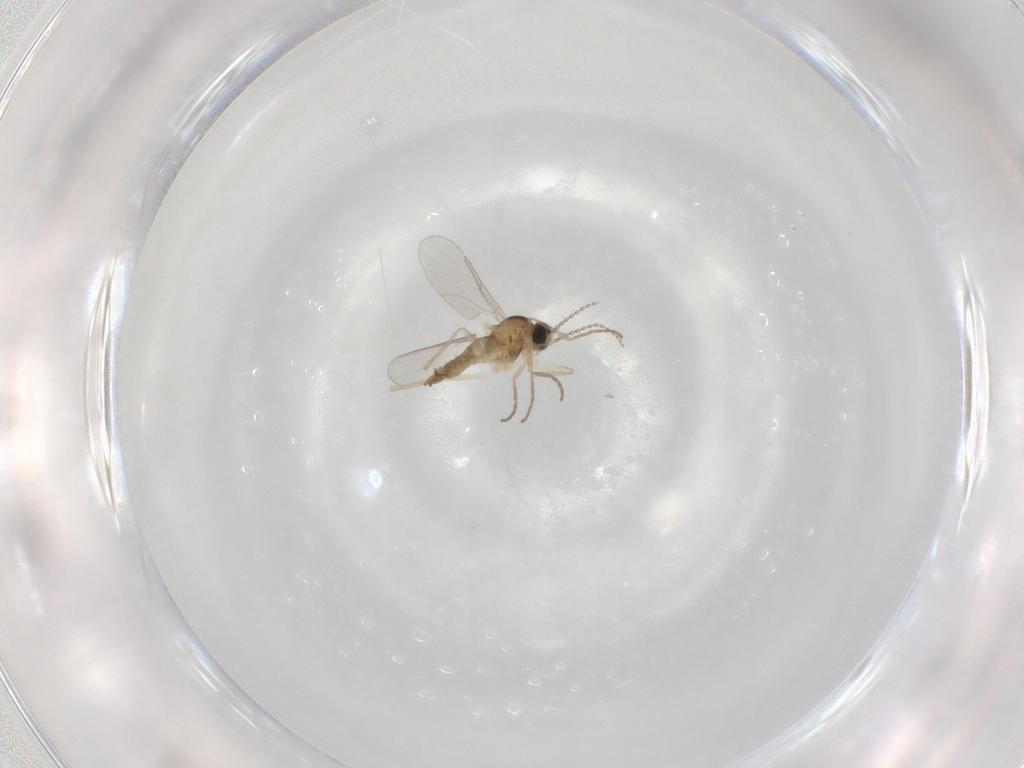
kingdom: Animalia
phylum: Arthropoda
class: Insecta
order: Diptera
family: Cecidomyiidae
